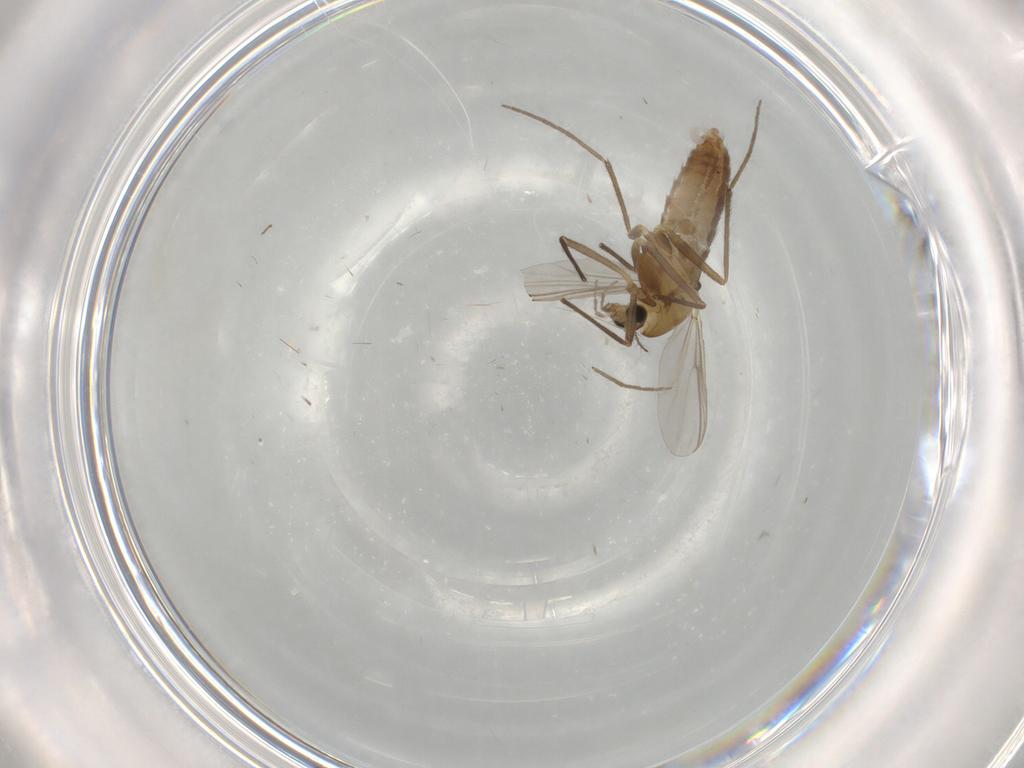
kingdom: Animalia
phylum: Arthropoda
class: Insecta
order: Diptera
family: Chironomidae
